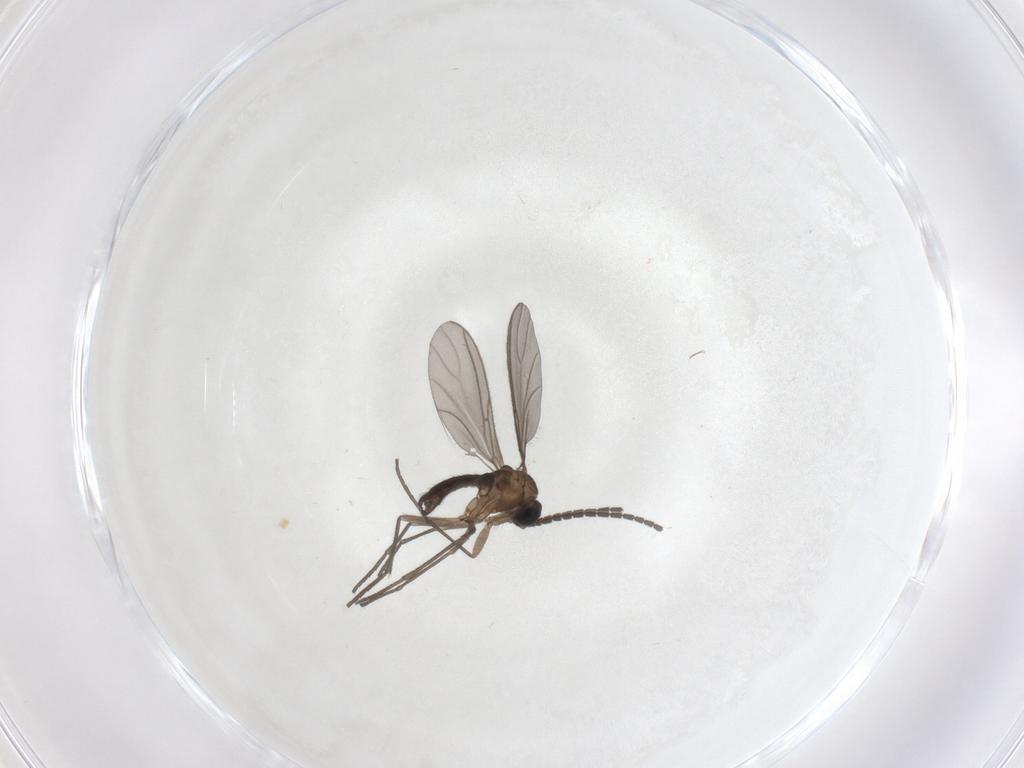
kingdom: Animalia
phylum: Arthropoda
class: Insecta
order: Diptera
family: Sciaridae
